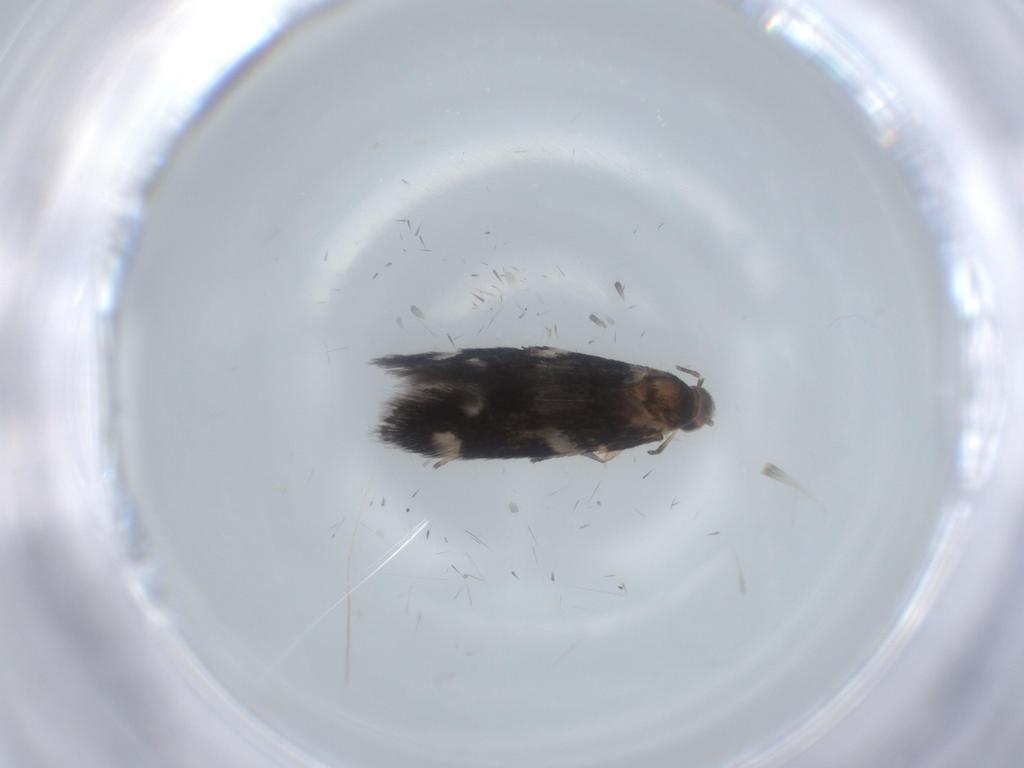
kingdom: Animalia
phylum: Arthropoda
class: Insecta
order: Lepidoptera
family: Cosmopterigidae
